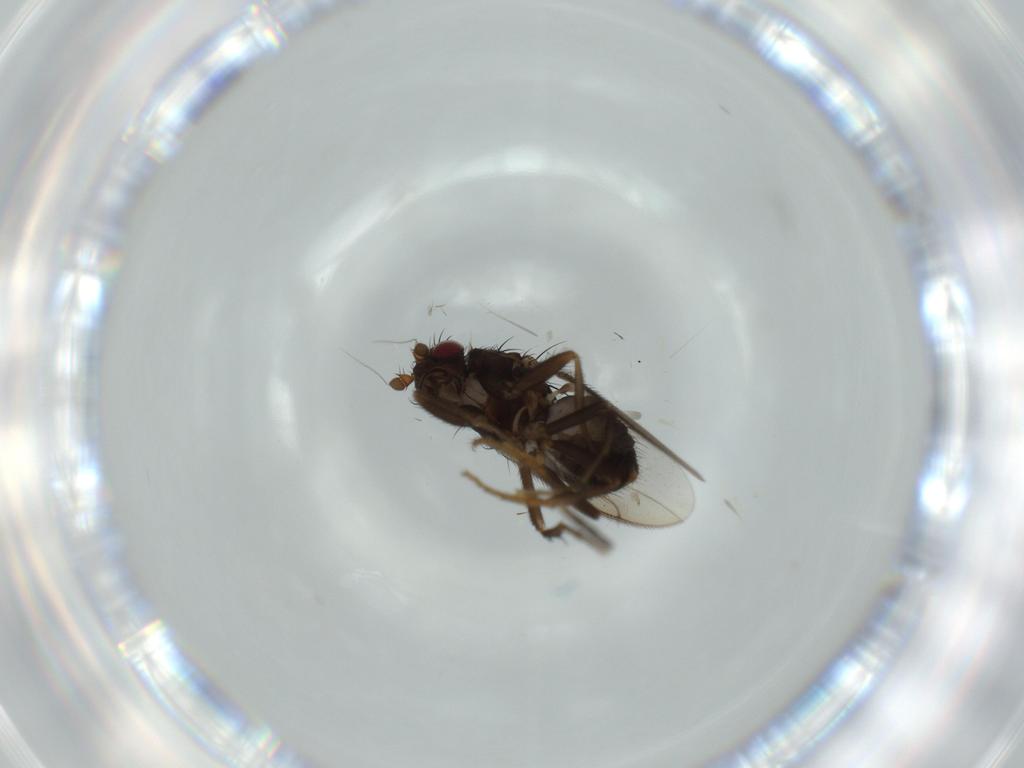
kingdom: Animalia
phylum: Arthropoda
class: Insecta
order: Diptera
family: Sphaeroceridae
